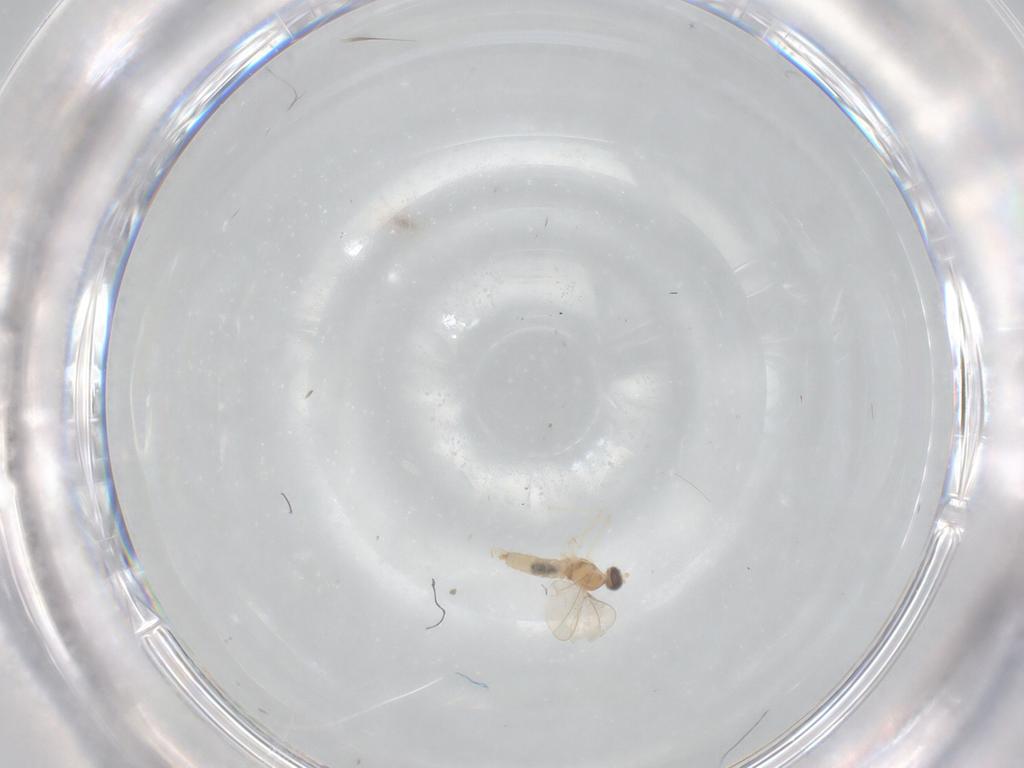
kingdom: Animalia
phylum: Arthropoda
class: Insecta
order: Diptera
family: Cecidomyiidae
